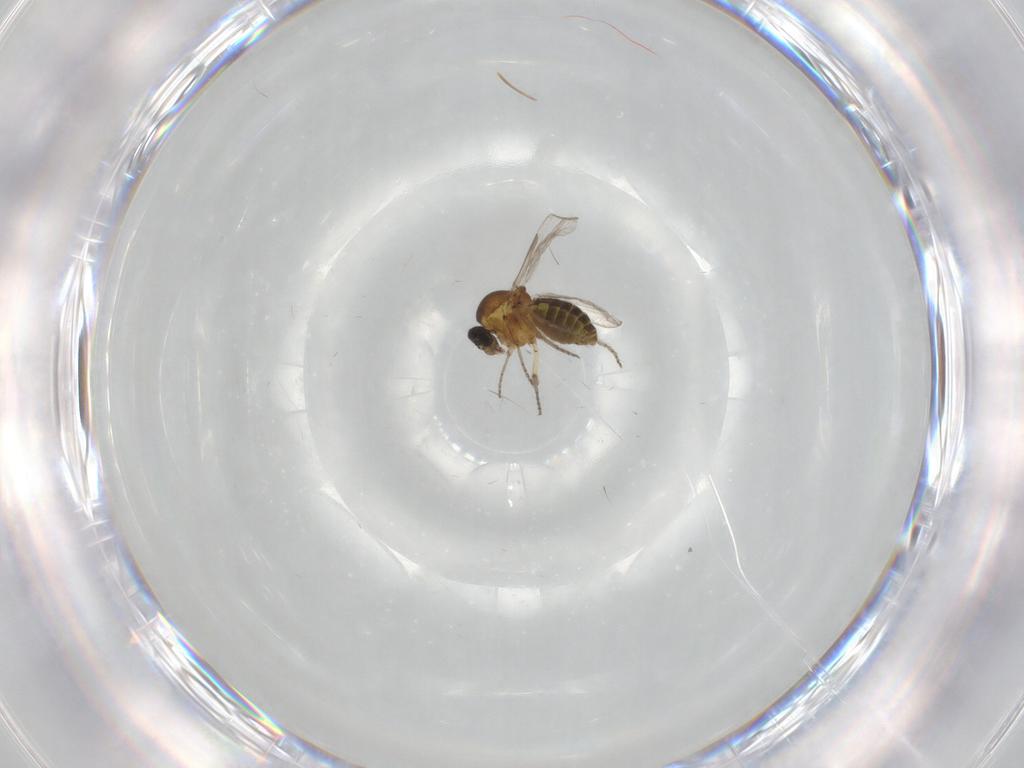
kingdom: Animalia
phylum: Arthropoda
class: Insecta
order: Diptera
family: Ceratopogonidae
